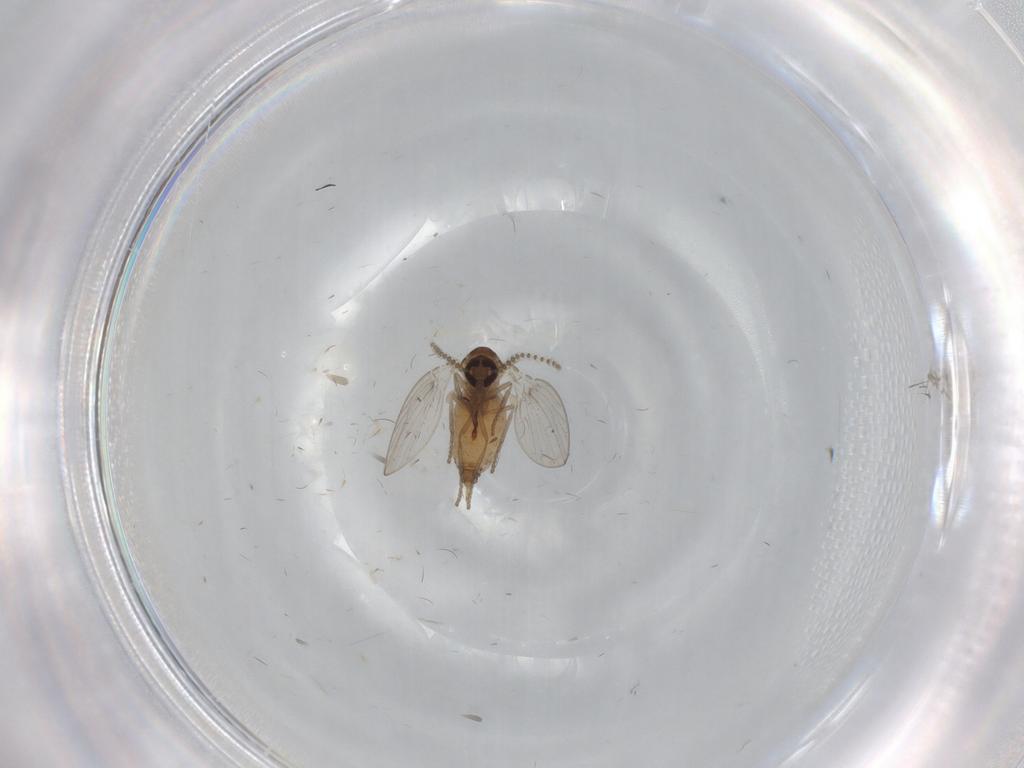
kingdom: Animalia
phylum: Arthropoda
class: Insecta
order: Diptera
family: Psychodidae
